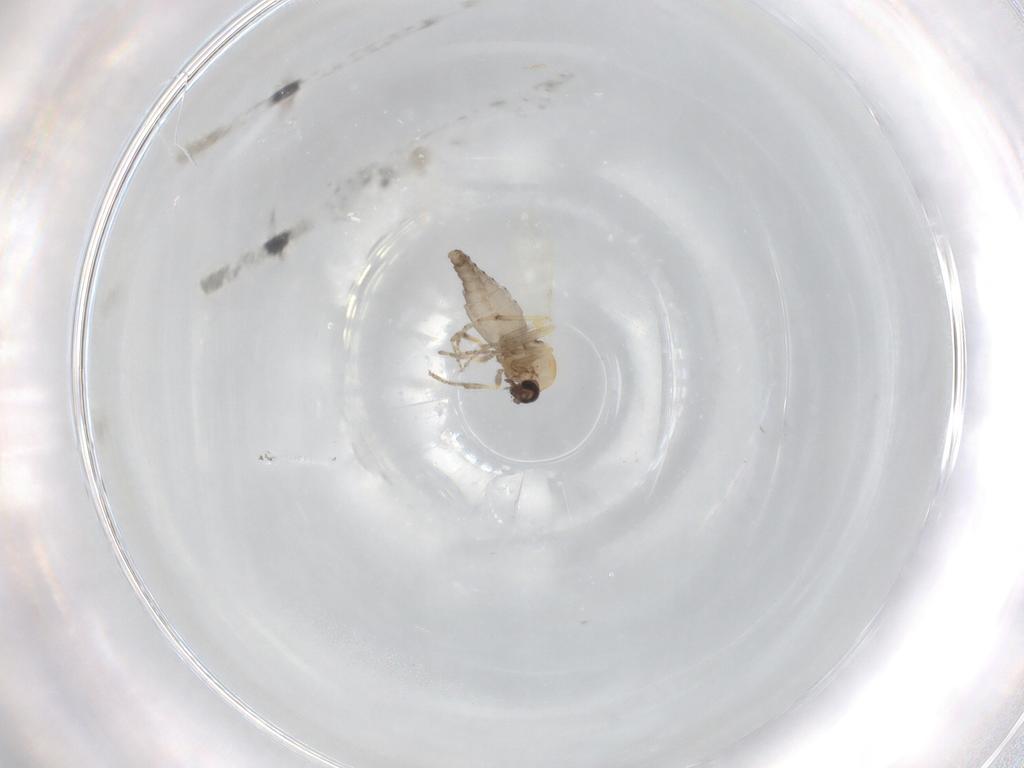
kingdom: Animalia
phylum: Arthropoda
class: Insecta
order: Diptera
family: Ceratopogonidae
